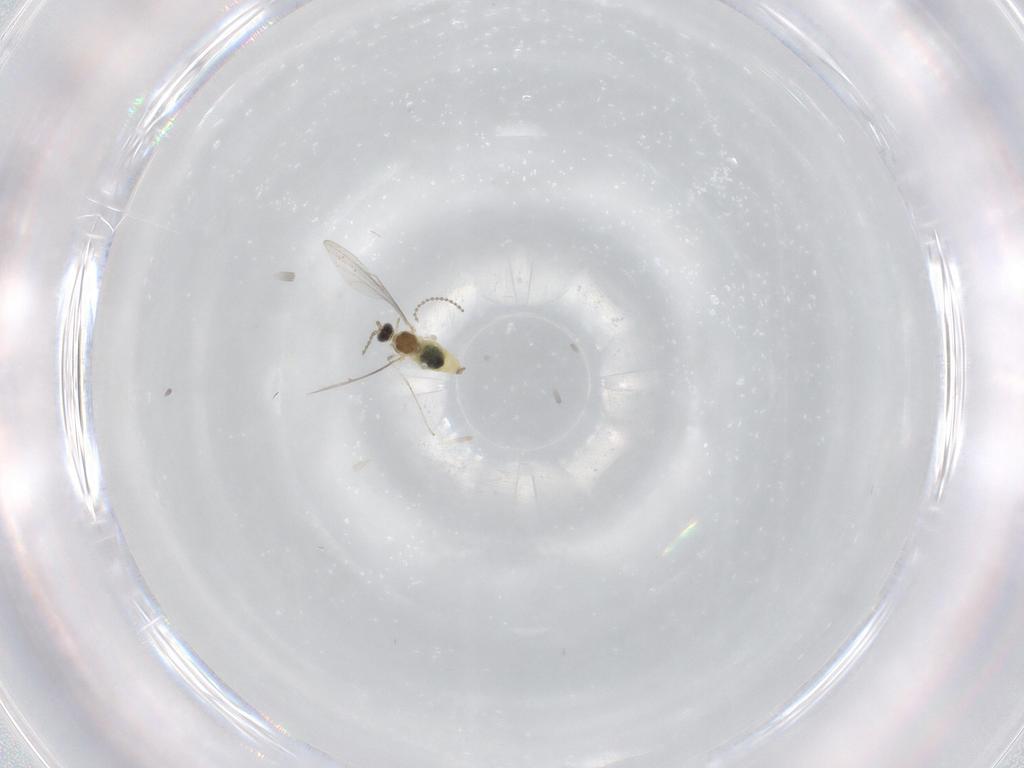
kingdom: Animalia
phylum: Arthropoda
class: Insecta
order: Diptera
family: Cecidomyiidae
